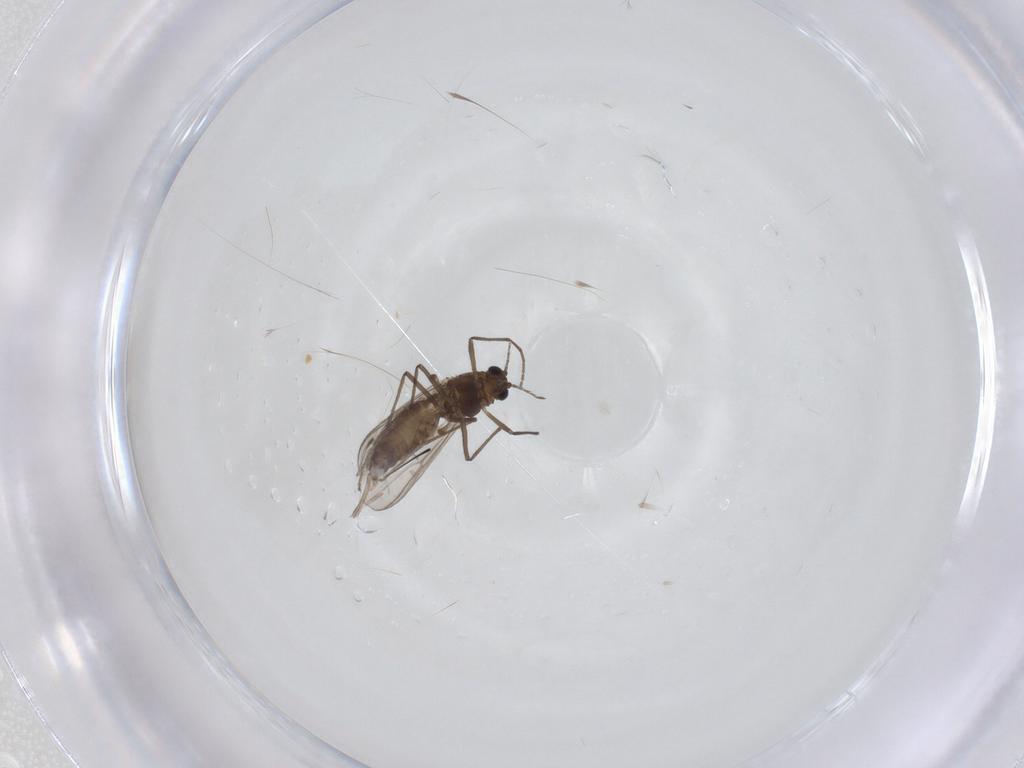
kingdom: Animalia
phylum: Arthropoda
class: Insecta
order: Diptera
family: Chironomidae
